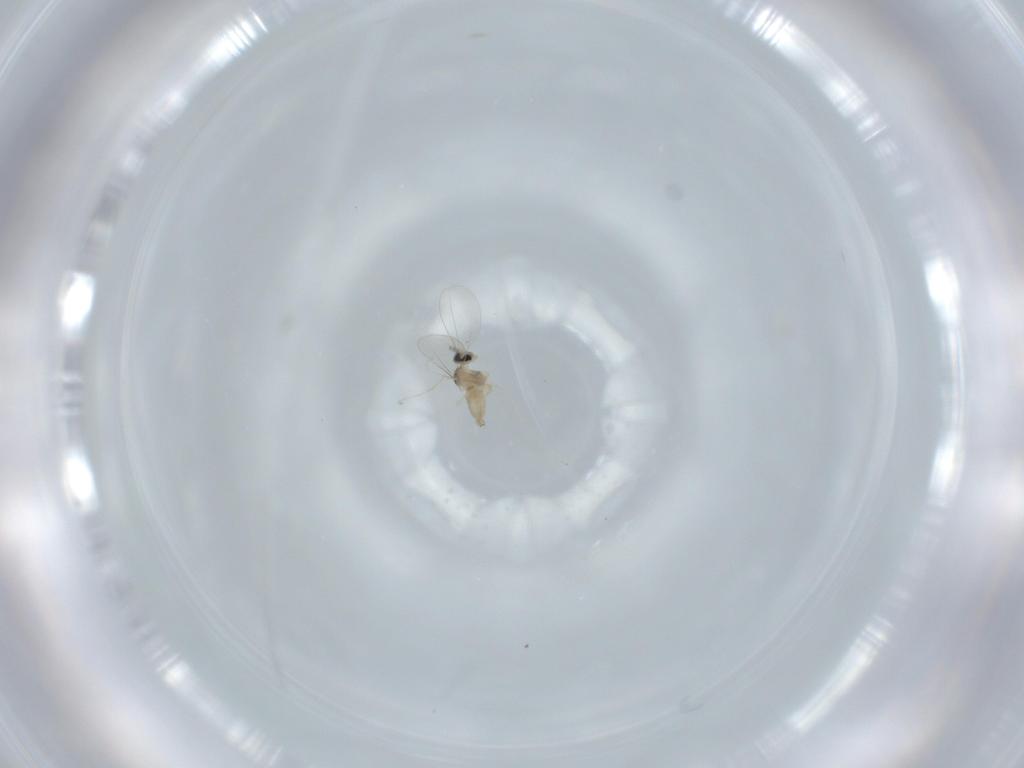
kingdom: Animalia
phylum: Arthropoda
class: Insecta
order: Diptera
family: Cecidomyiidae
